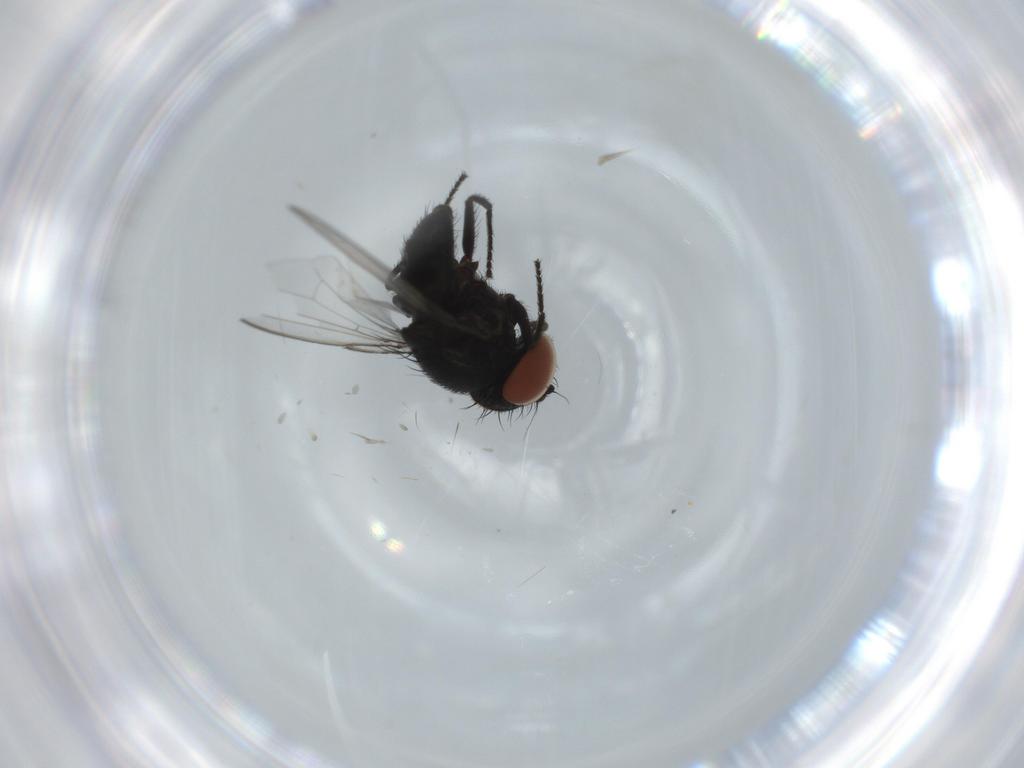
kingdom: Animalia
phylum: Arthropoda
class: Insecta
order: Diptera
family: Milichiidae
